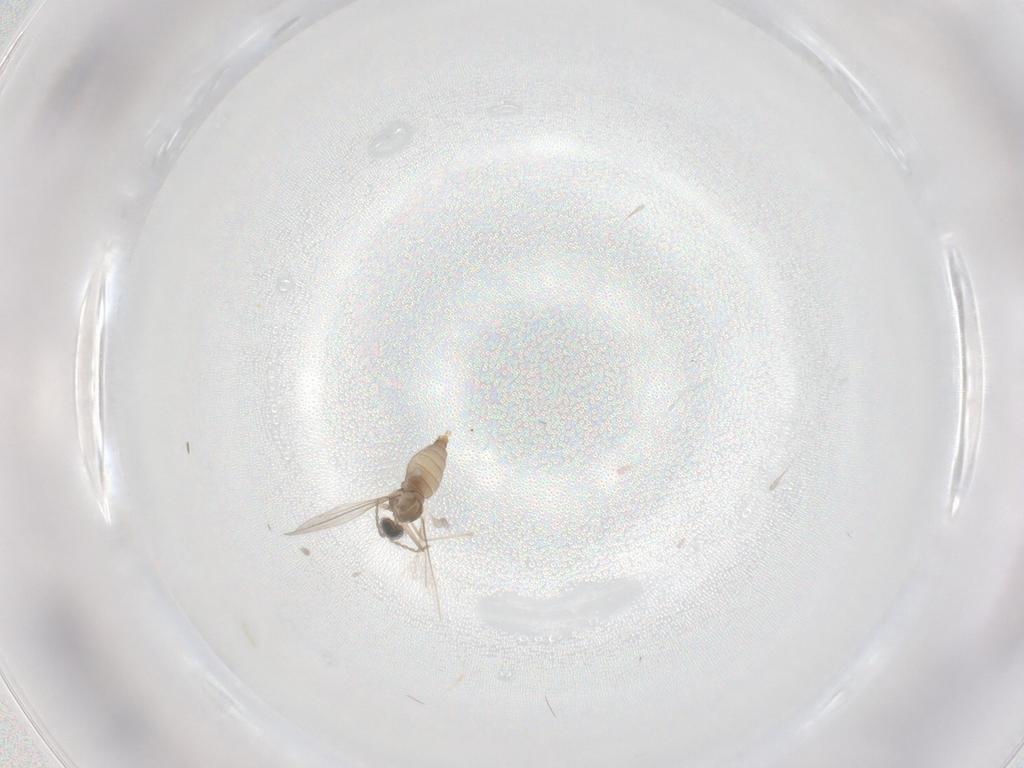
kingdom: Animalia
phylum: Arthropoda
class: Insecta
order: Diptera
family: Cecidomyiidae
